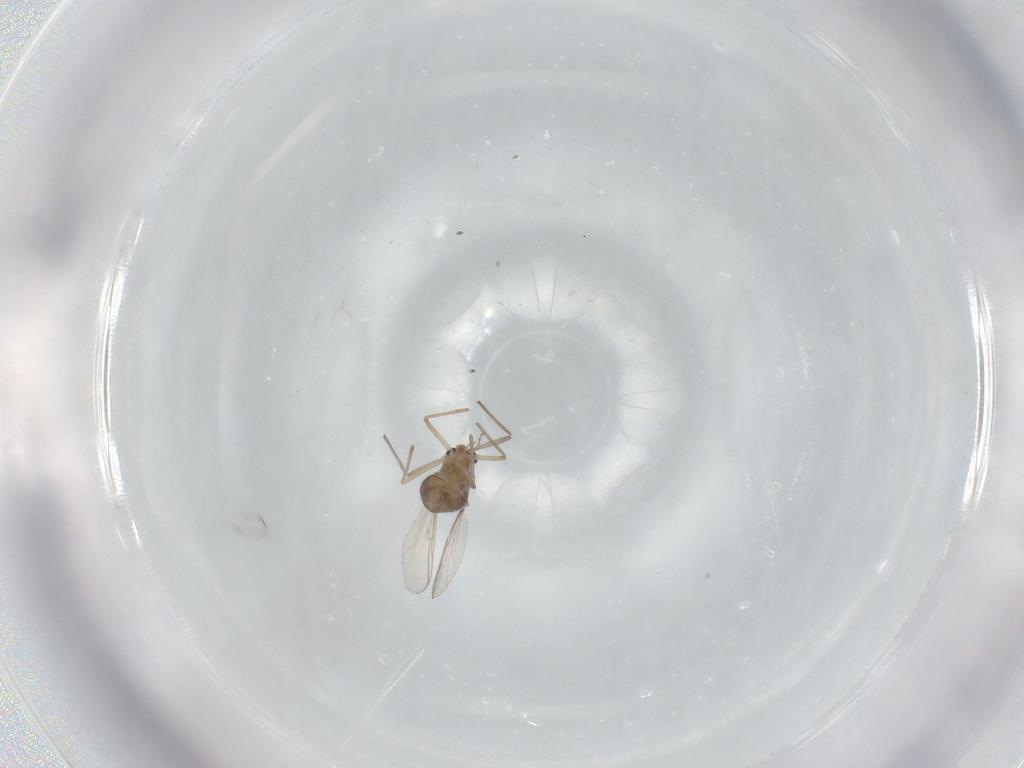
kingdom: Animalia
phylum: Arthropoda
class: Insecta
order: Diptera
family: Chironomidae
